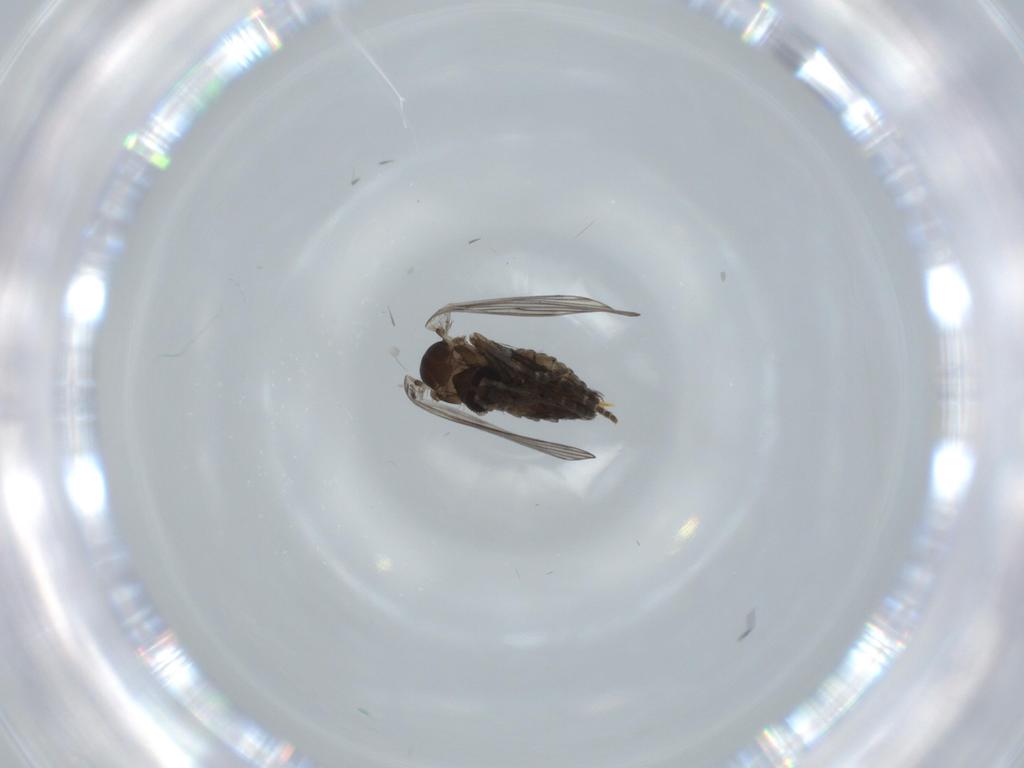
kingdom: Animalia
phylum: Arthropoda
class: Insecta
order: Diptera
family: Psychodidae
